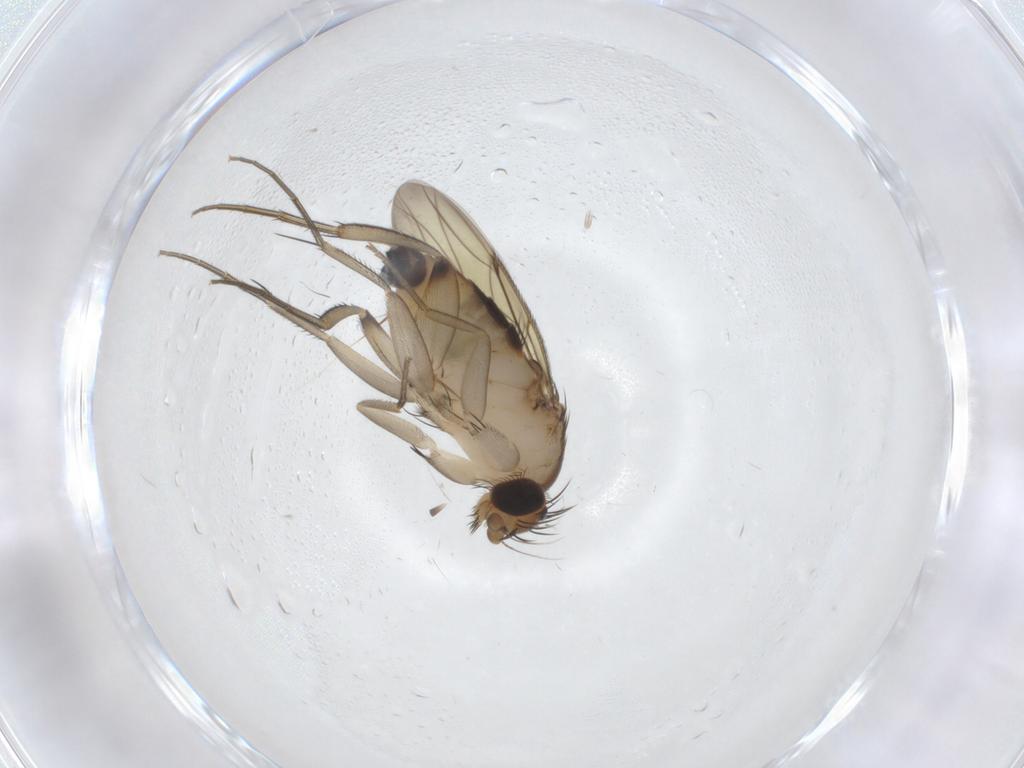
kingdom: Animalia
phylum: Arthropoda
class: Insecta
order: Diptera
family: Phoridae
